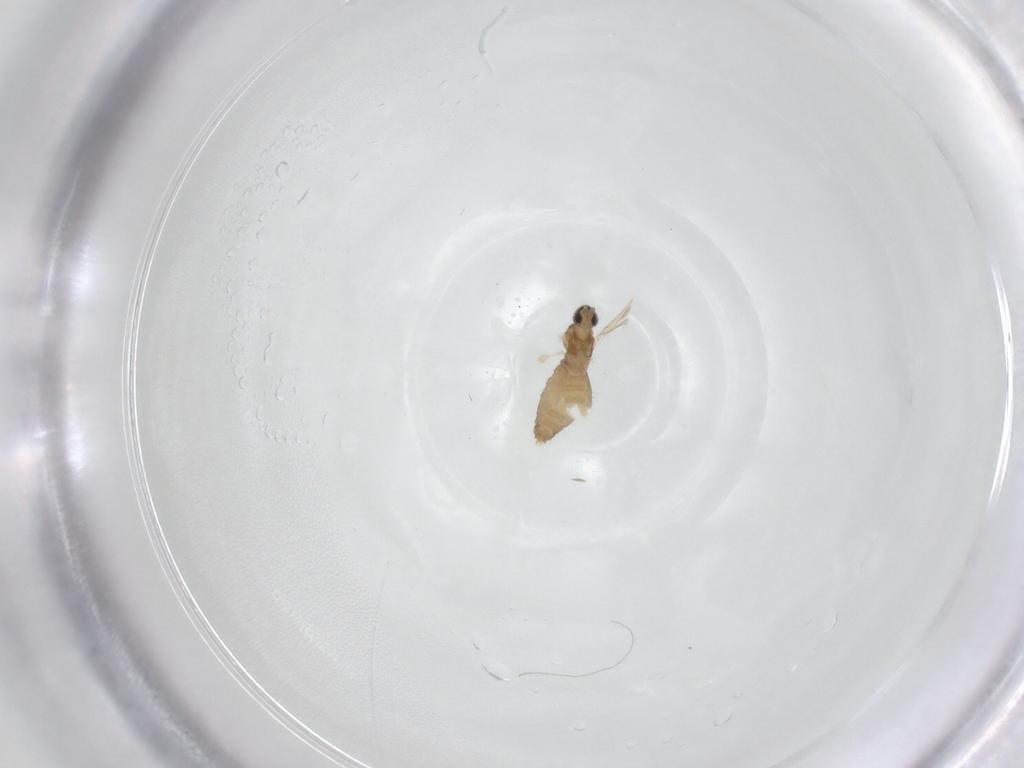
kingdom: Animalia
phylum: Arthropoda
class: Insecta
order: Diptera
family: Cecidomyiidae
